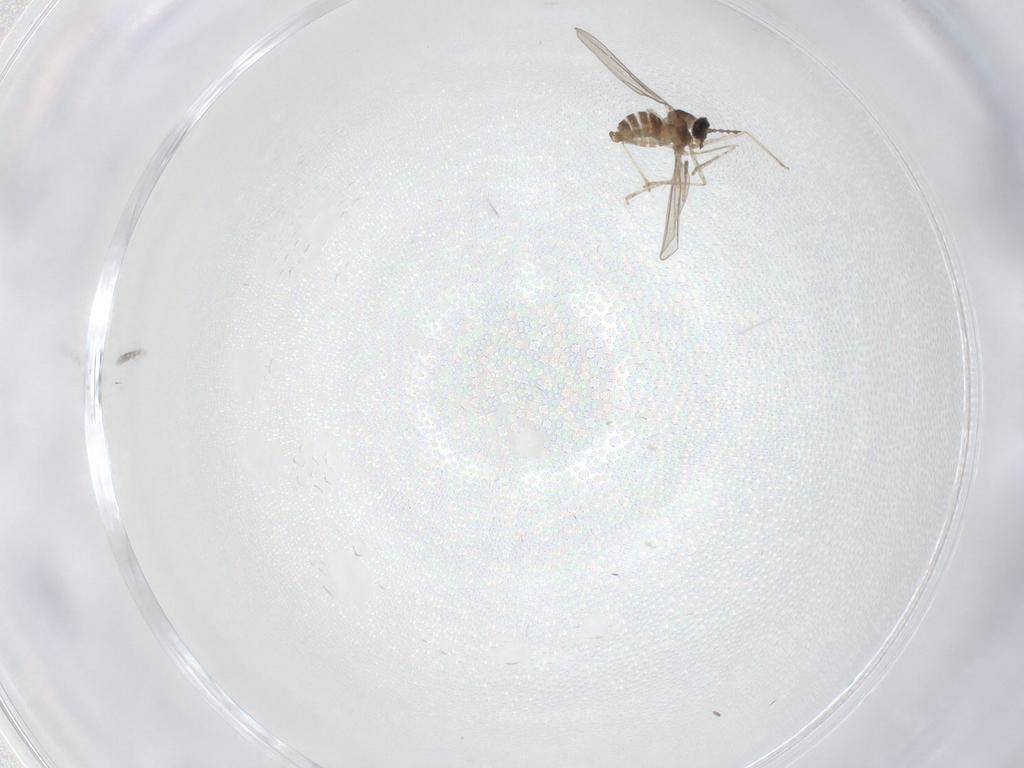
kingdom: Animalia
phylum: Arthropoda
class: Insecta
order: Diptera
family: Cecidomyiidae
